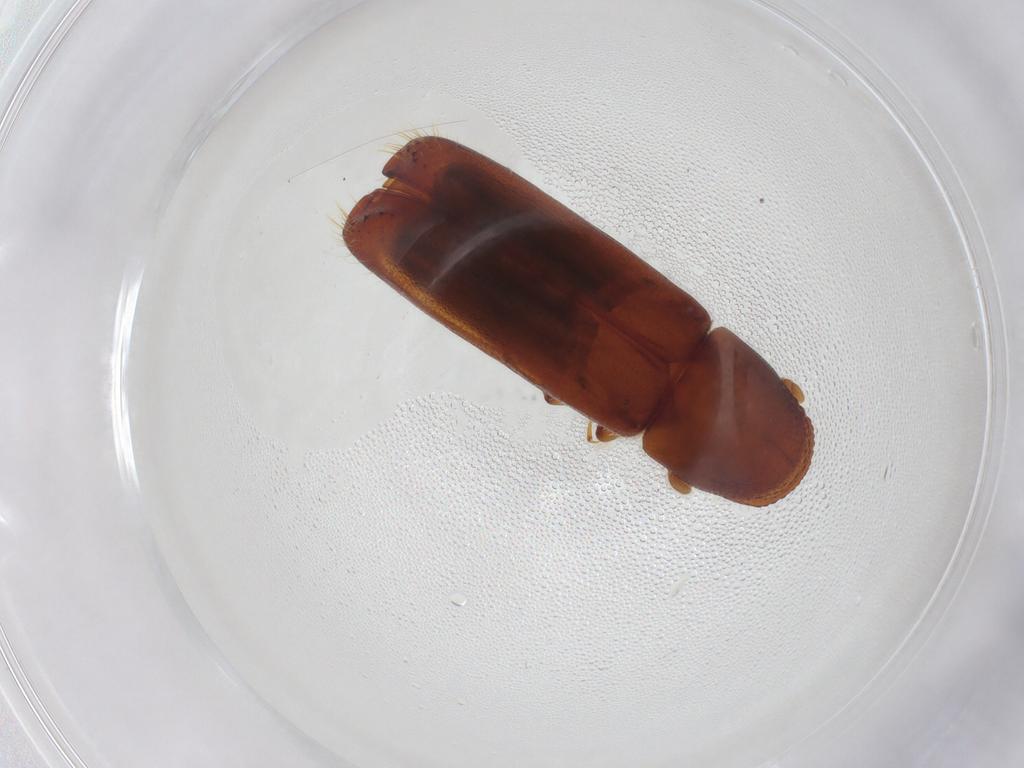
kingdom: Animalia
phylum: Arthropoda
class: Insecta
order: Coleoptera
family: Curculionidae
